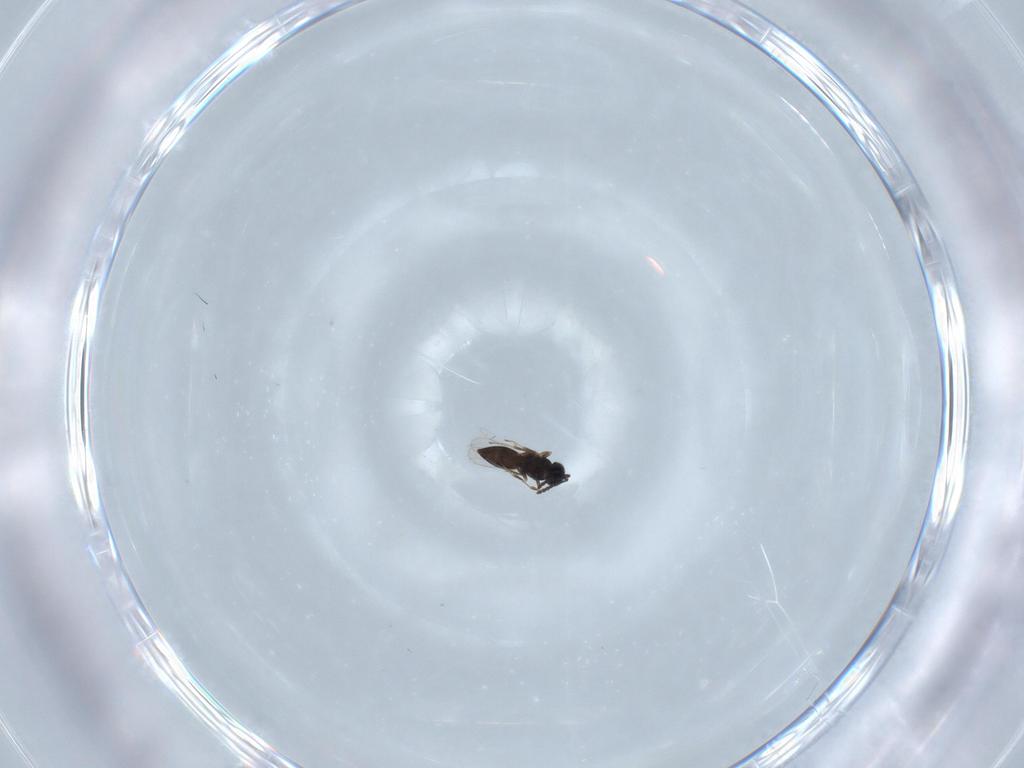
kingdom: Animalia
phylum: Arthropoda
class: Insecta
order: Hymenoptera
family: Scelionidae
